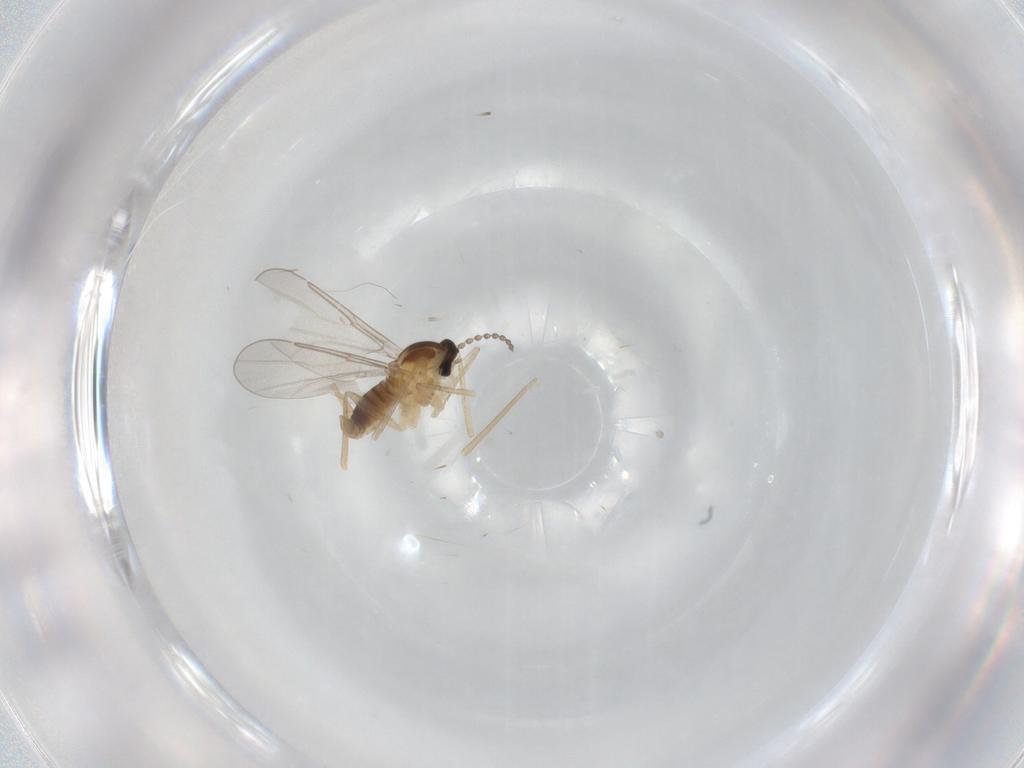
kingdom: Animalia
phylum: Arthropoda
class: Insecta
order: Diptera
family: Cecidomyiidae
